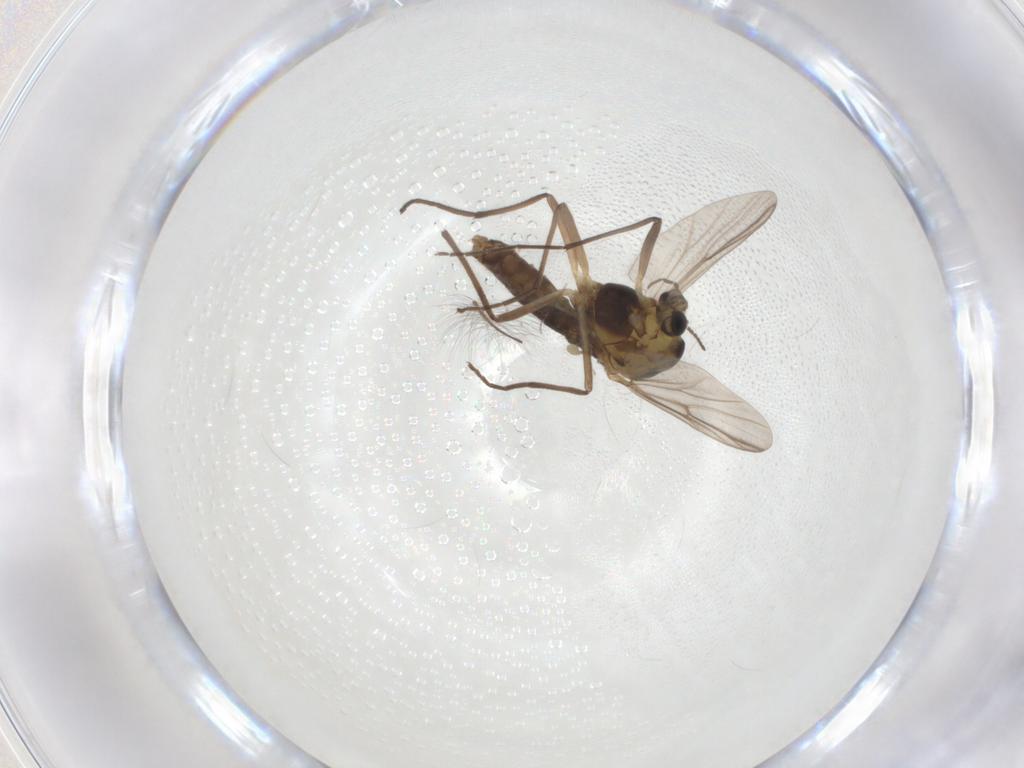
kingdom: Animalia
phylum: Arthropoda
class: Insecta
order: Diptera
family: Chironomidae
